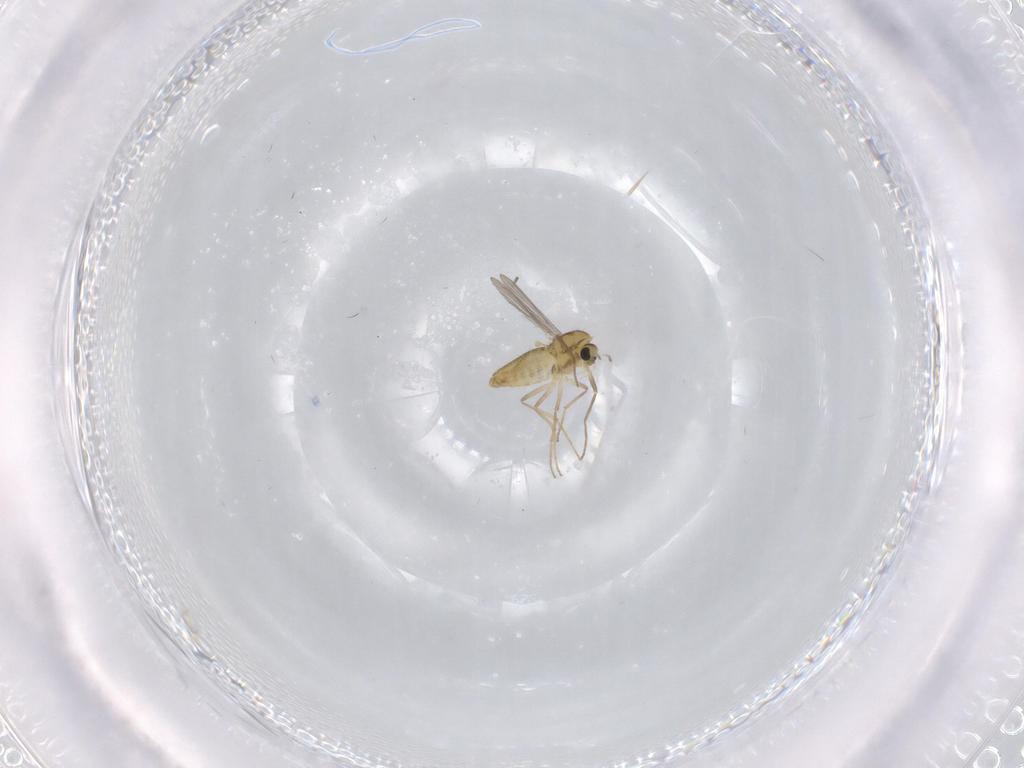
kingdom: Animalia
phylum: Arthropoda
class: Insecta
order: Diptera
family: Chironomidae
